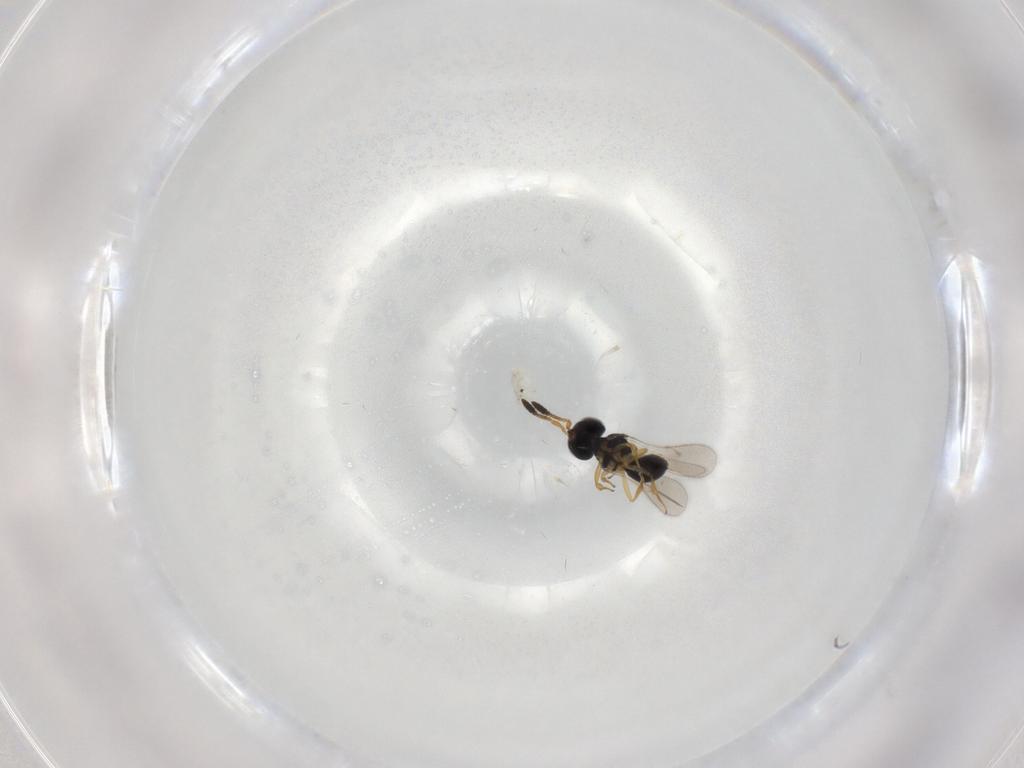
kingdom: Animalia
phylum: Arthropoda
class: Insecta
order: Hymenoptera
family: Scelionidae
